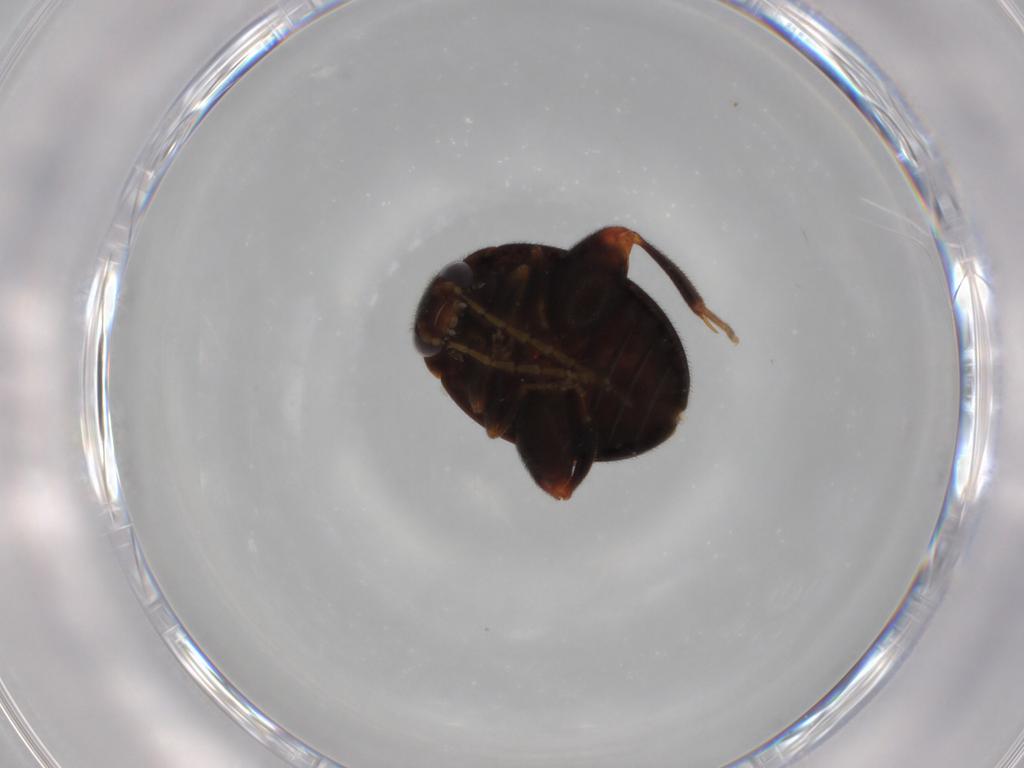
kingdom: Animalia
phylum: Arthropoda
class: Insecta
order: Coleoptera
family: Scirtidae
